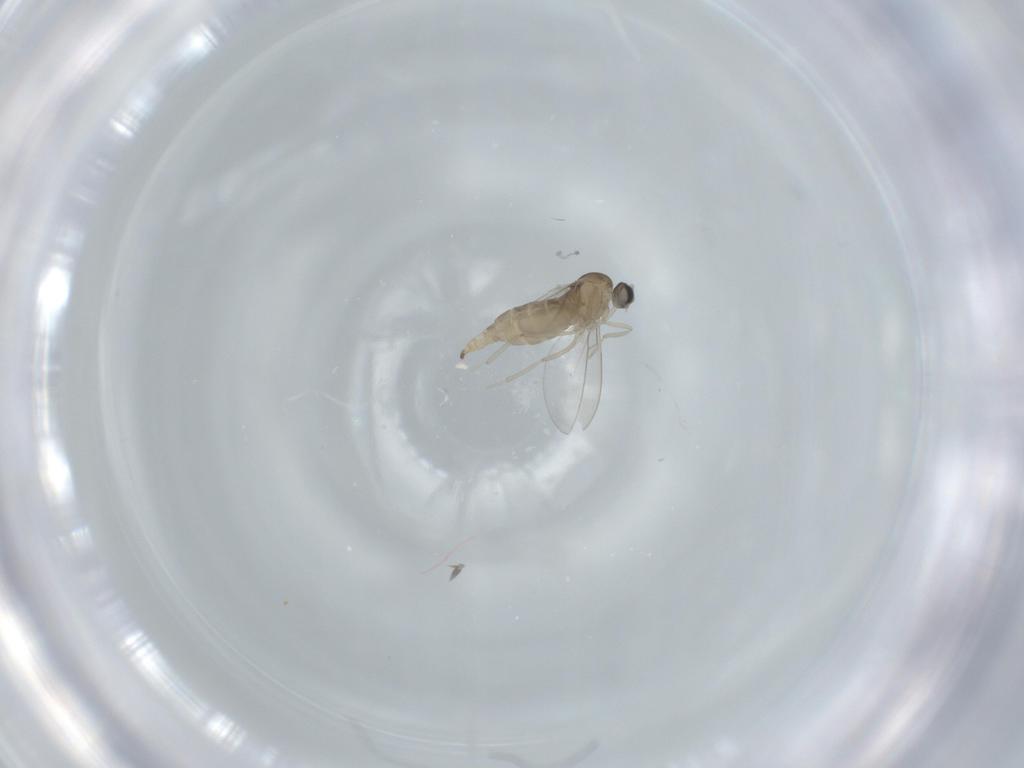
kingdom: Animalia
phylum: Arthropoda
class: Insecta
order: Diptera
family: Cecidomyiidae
